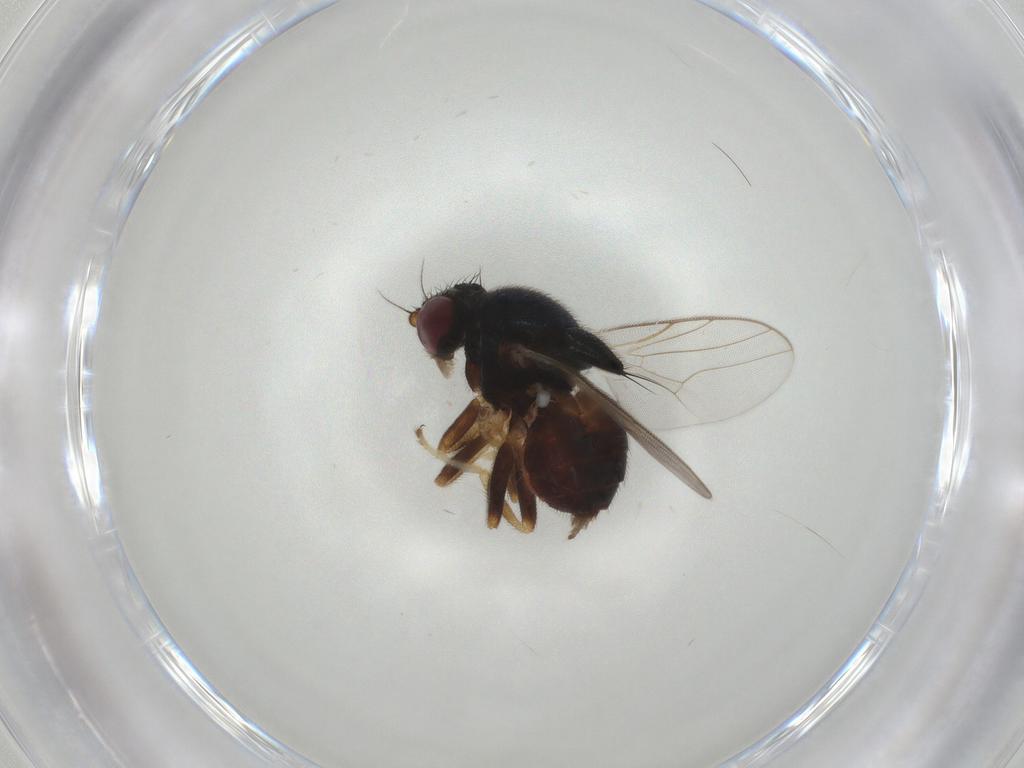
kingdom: Animalia
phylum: Arthropoda
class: Insecta
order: Diptera
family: Chloropidae
